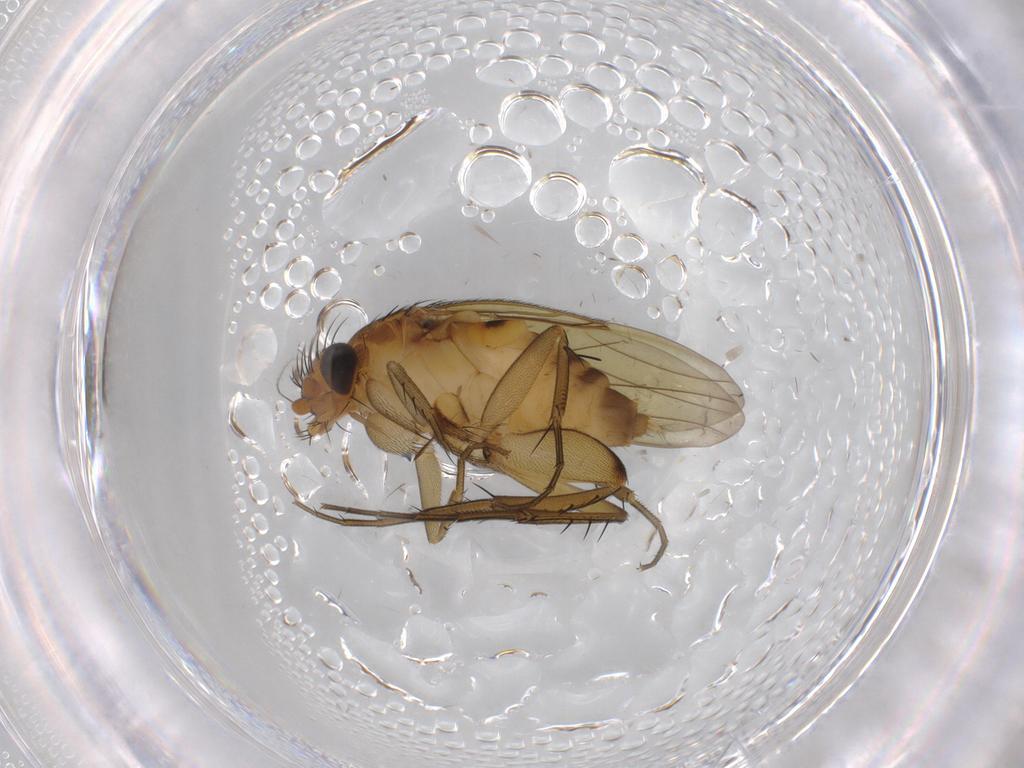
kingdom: Animalia
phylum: Arthropoda
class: Insecta
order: Diptera
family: Phoridae
